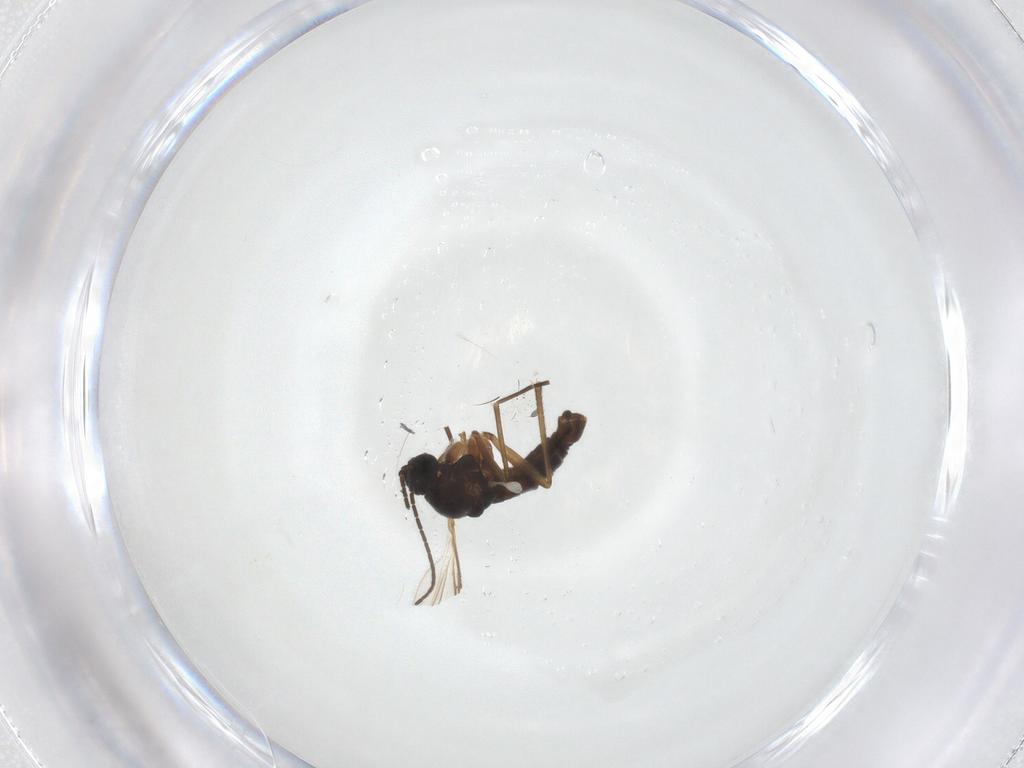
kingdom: Animalia
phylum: Arthropoda
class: Insecta
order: Diptera
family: Sciaridae
